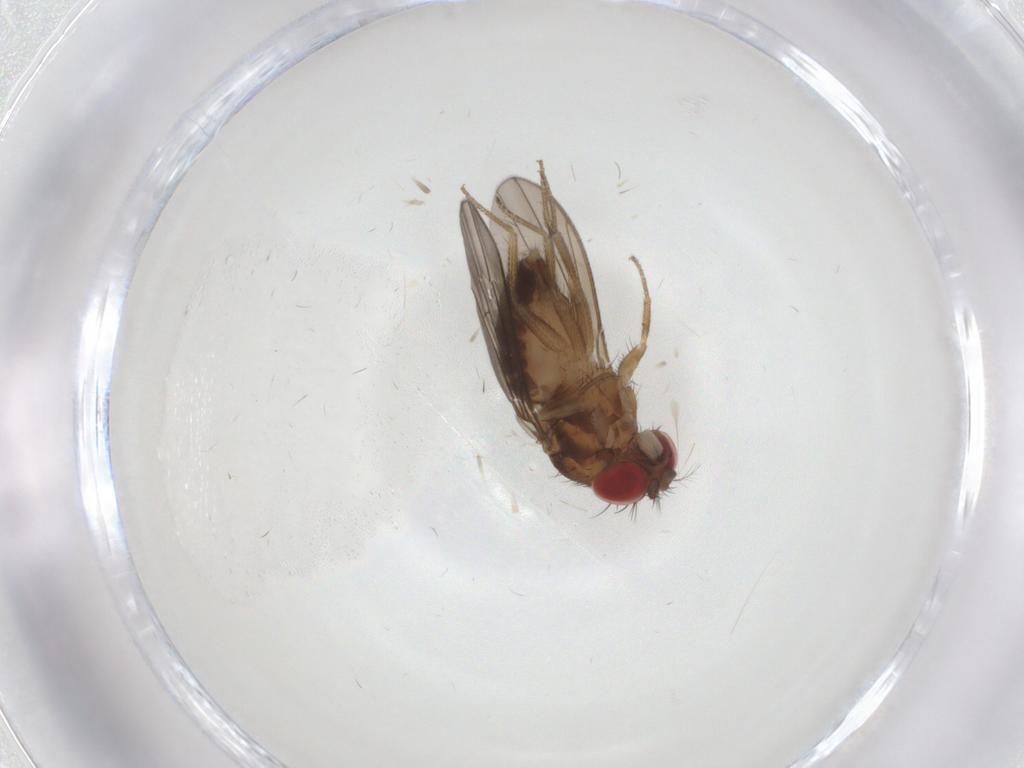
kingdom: Animalia
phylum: Arthropoda
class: Insecta
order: Diptera
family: Drosophilidae
